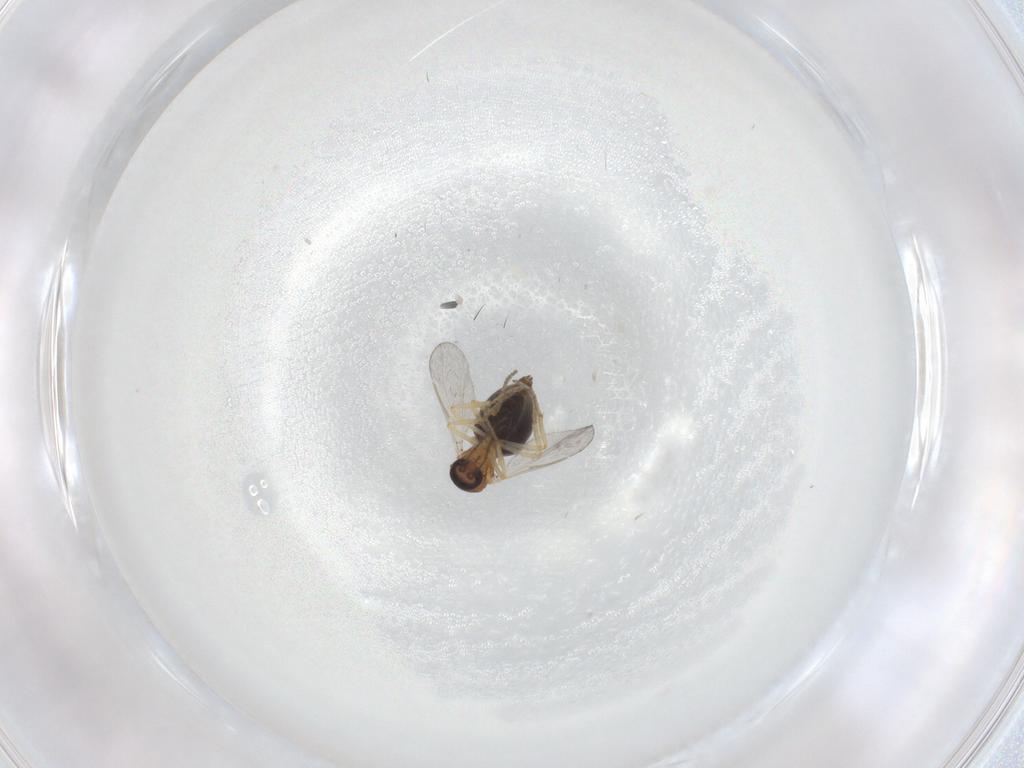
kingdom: Animalia
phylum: Arthropoda
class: Insecta
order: Diptera
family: Ceratopogonidae
